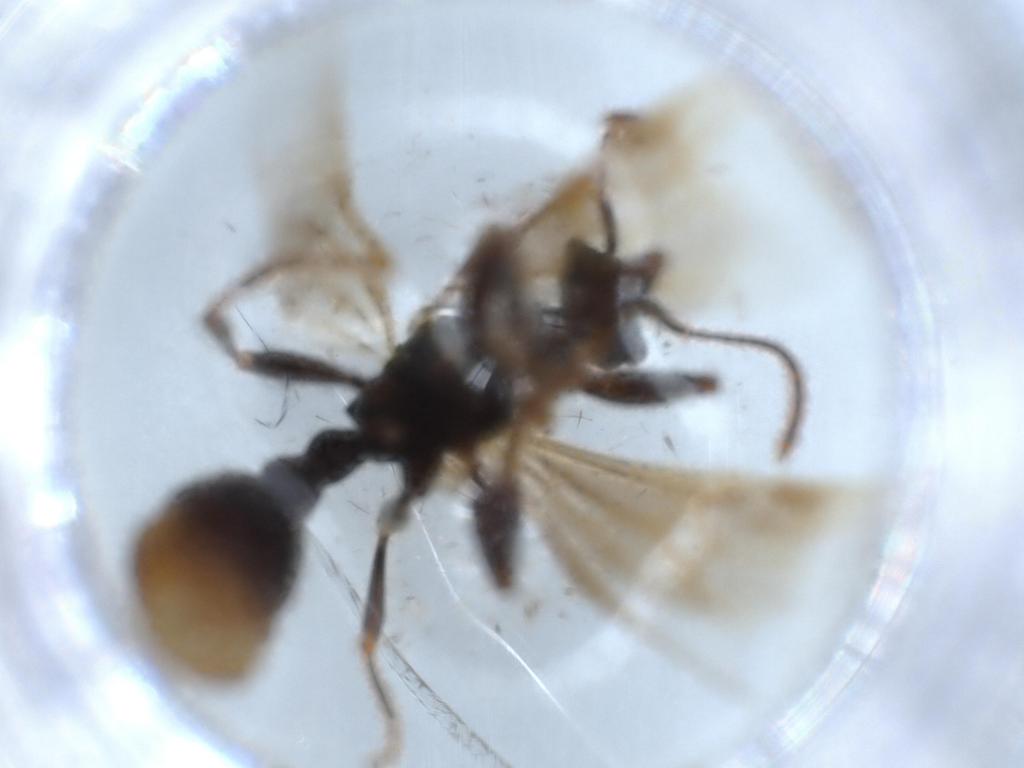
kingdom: Animalia
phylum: Arthropoda
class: Insecta
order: Hymenoptera
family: Formicidae
